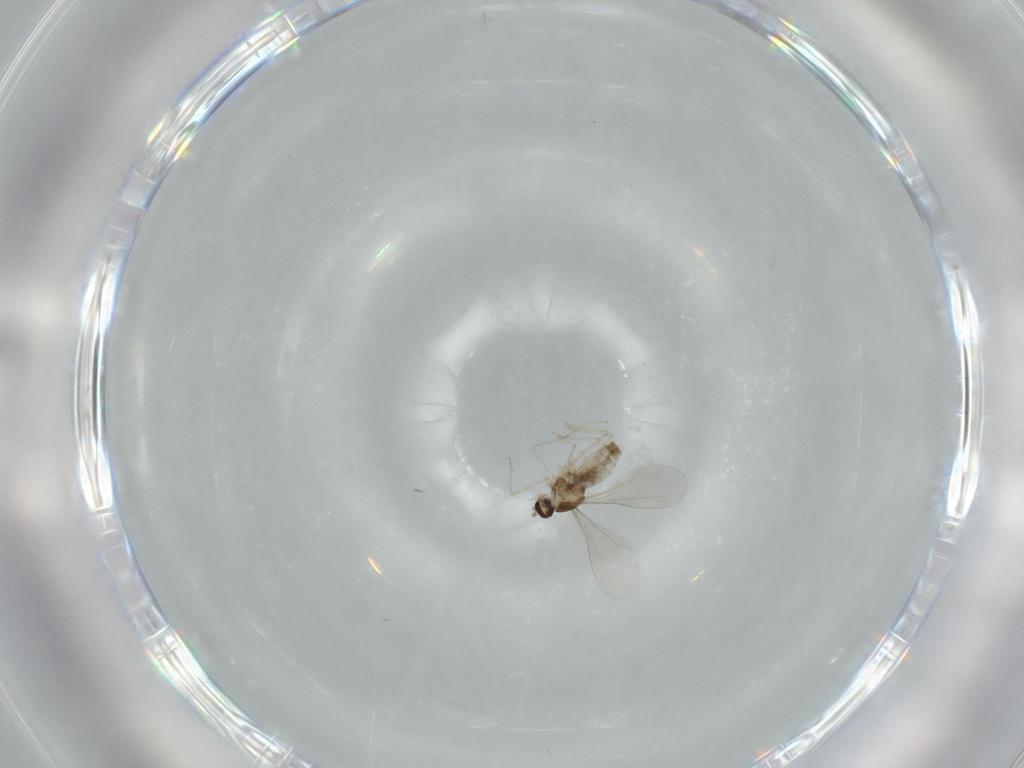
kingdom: Animalia
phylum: Arthropoda
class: Insecta
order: Diptera
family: Cecidomyiidae
